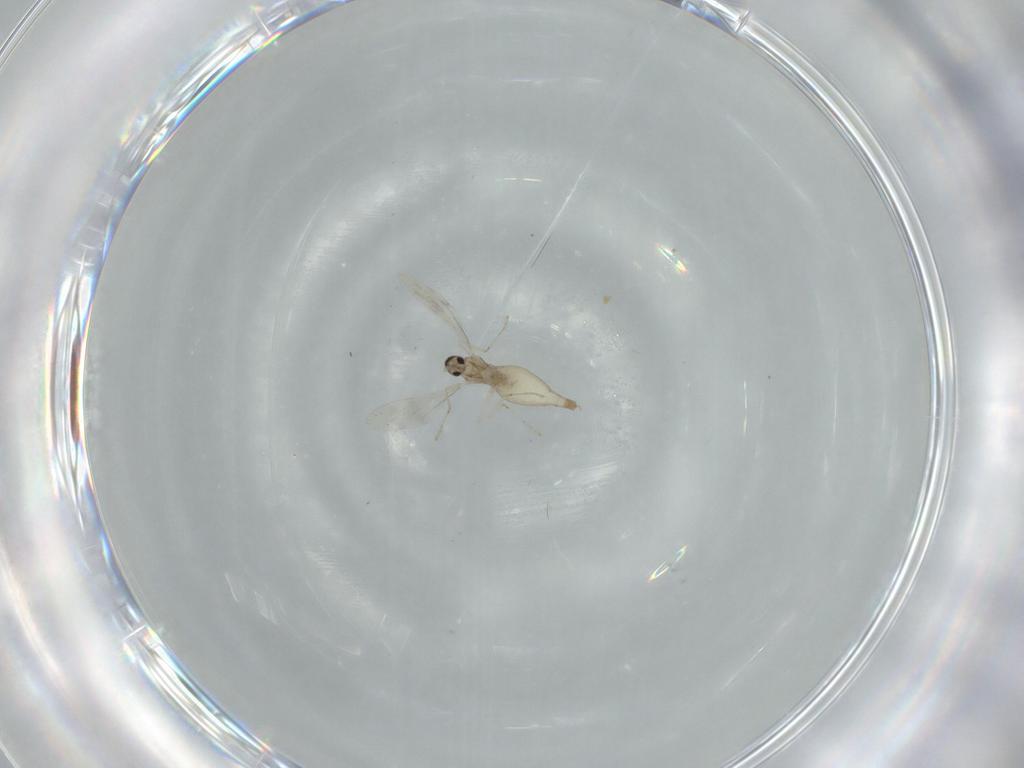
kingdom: Animalia
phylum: Arthropoda
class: Insecta
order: Diptera
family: Cecidomyiidae
